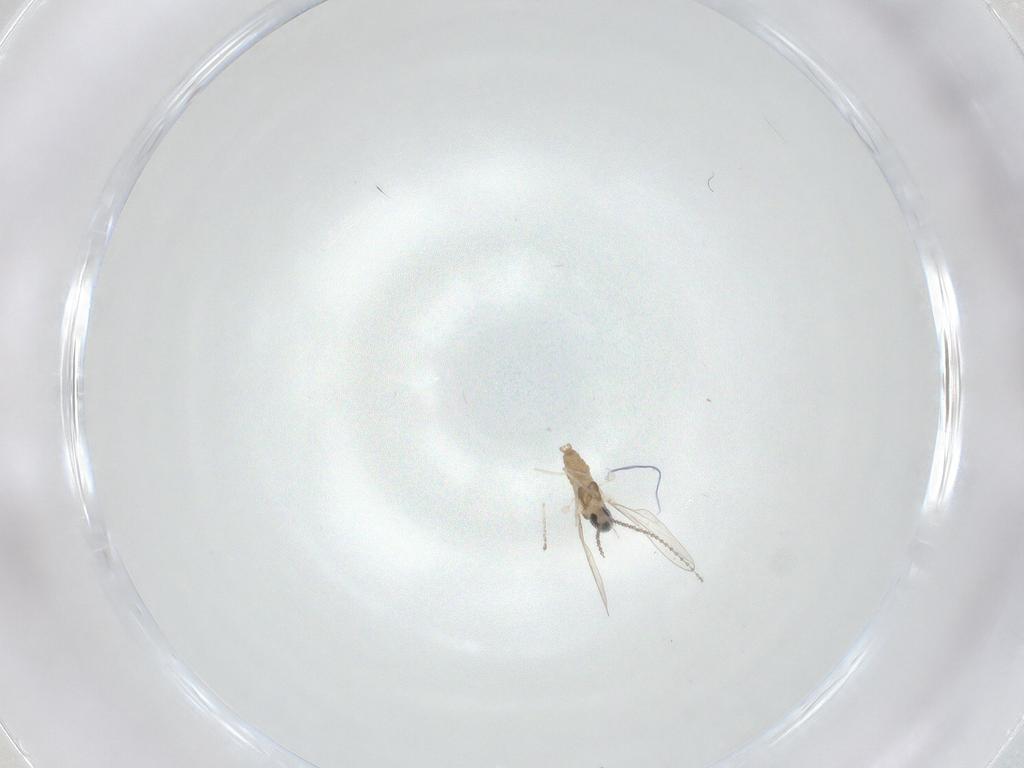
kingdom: Animalia
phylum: Arthropoda
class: Insecta
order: Diptera
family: Cecidomyiidae
